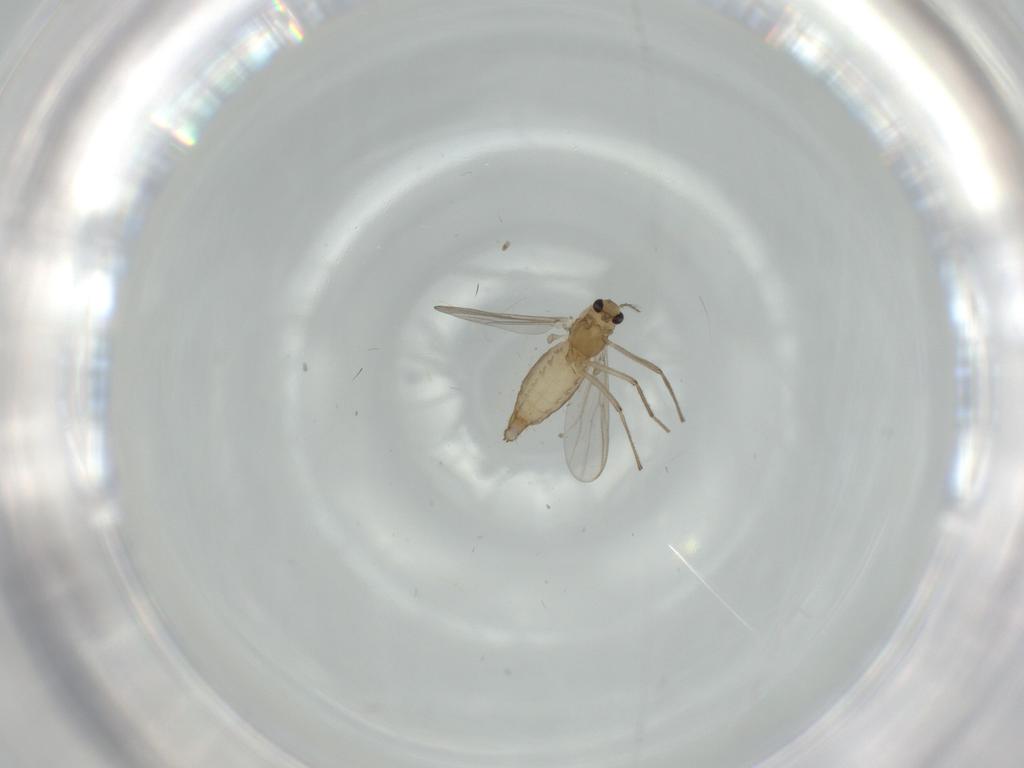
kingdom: Animalia
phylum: Arthropoda
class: Insecta
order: Diptera
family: Chironomidae
